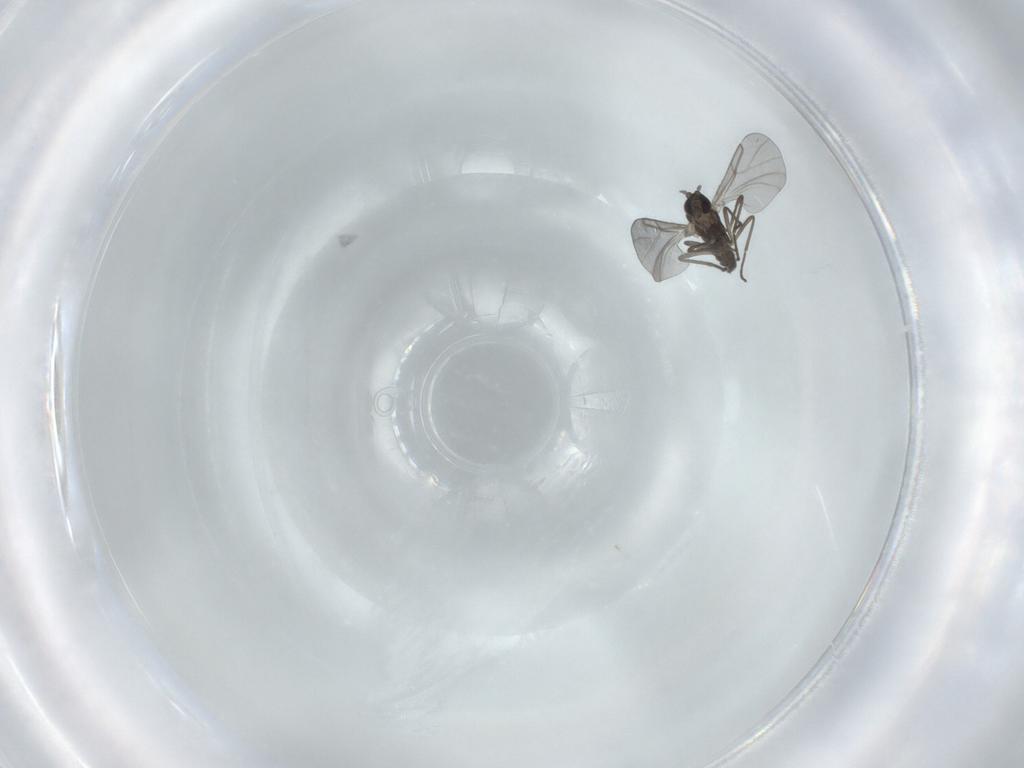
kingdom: Animalia
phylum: Arthropoda
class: Insecta
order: Diptera
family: Cecidomyiidae
